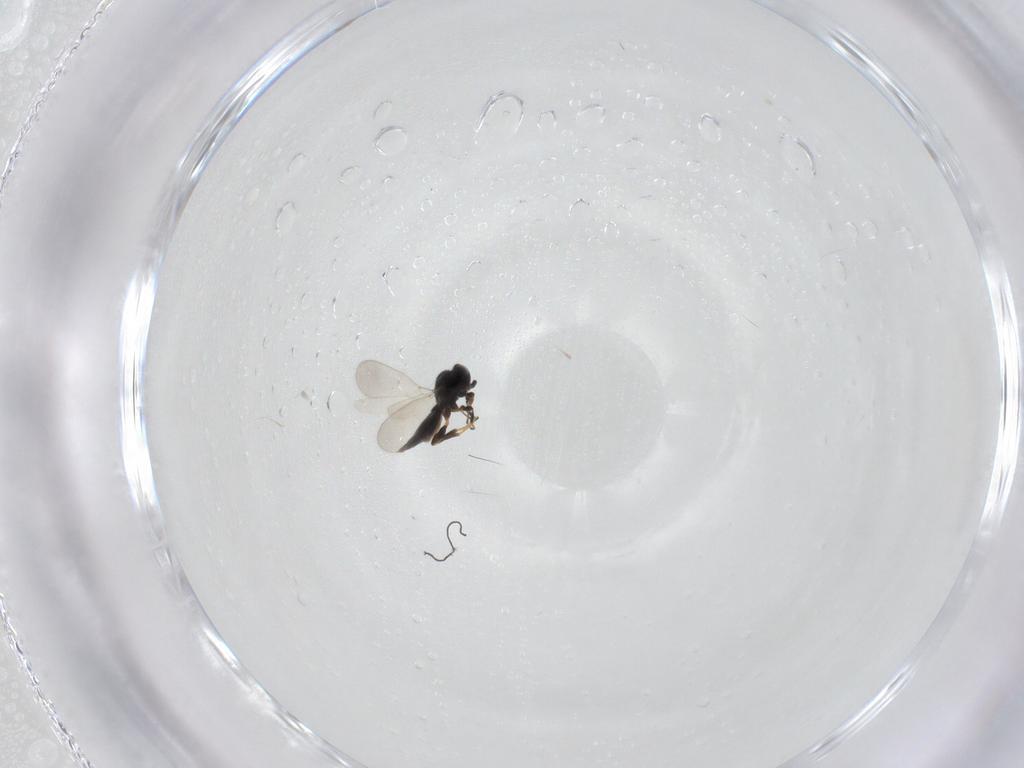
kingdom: Animalia
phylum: Arthropoda
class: Insecta
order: Hymenoptera
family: Platygastridae
